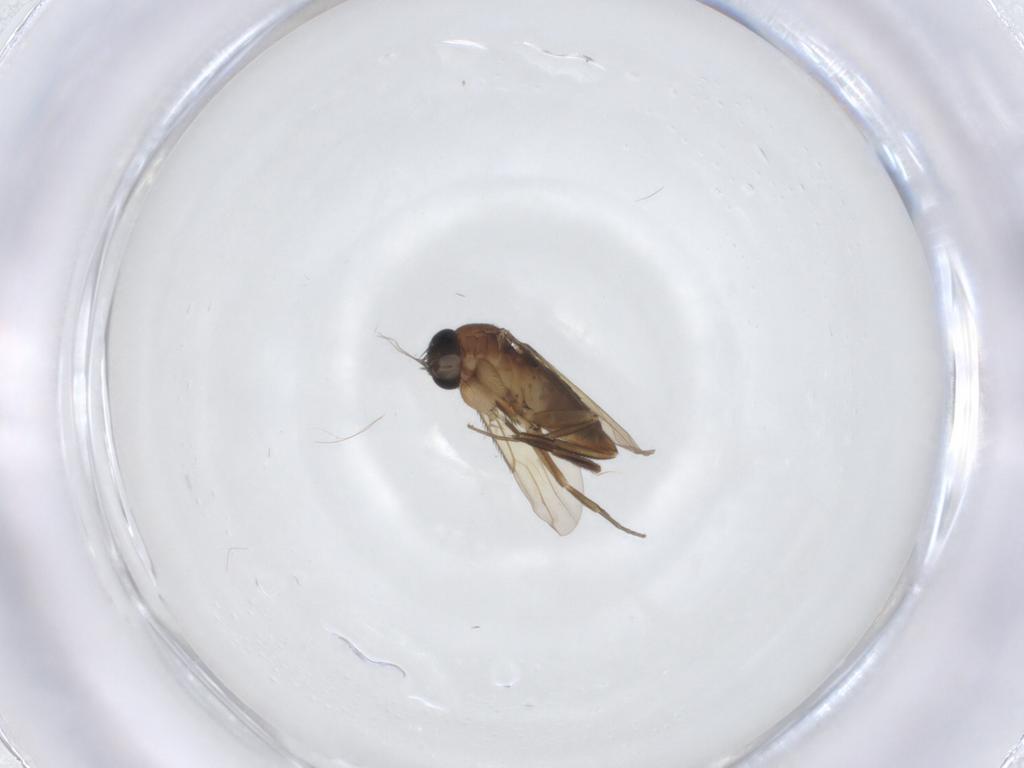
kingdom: Animalia
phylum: Arthropoda
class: Insecta
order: Diptera
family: Phoridae
